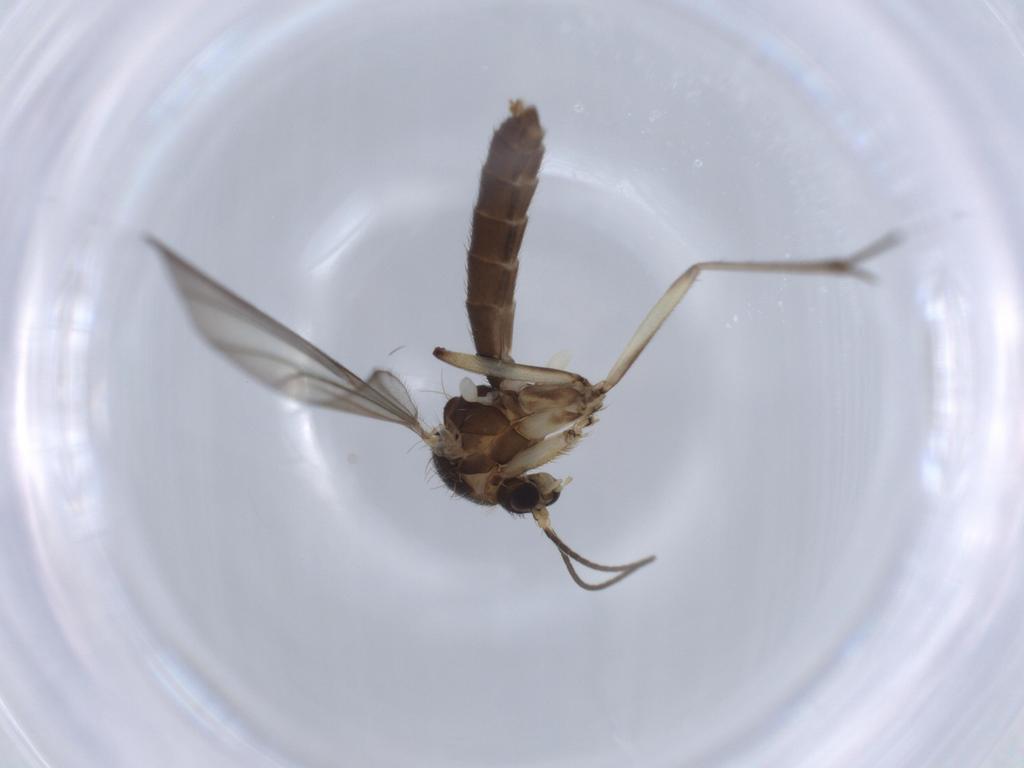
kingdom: Animalia
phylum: Arthropoda
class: Insecta
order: Diptera
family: Mycetophilidae
